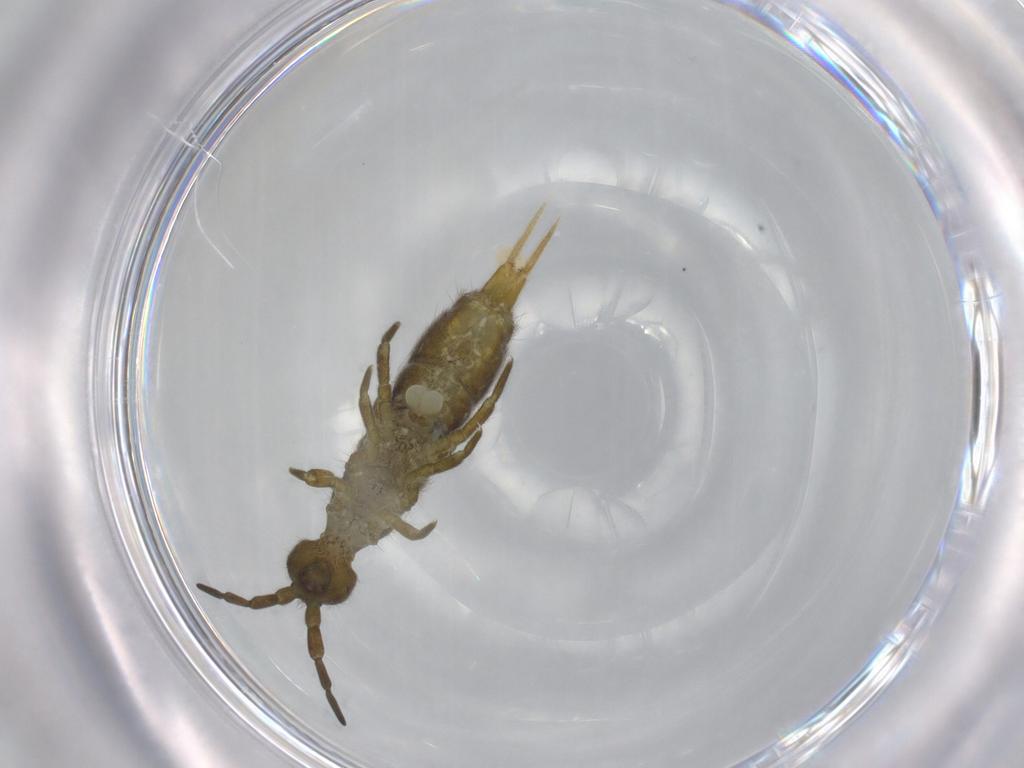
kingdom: Animalia
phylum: Arthropoda
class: Collembola
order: Entomobryomorpha
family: Isotomidae
